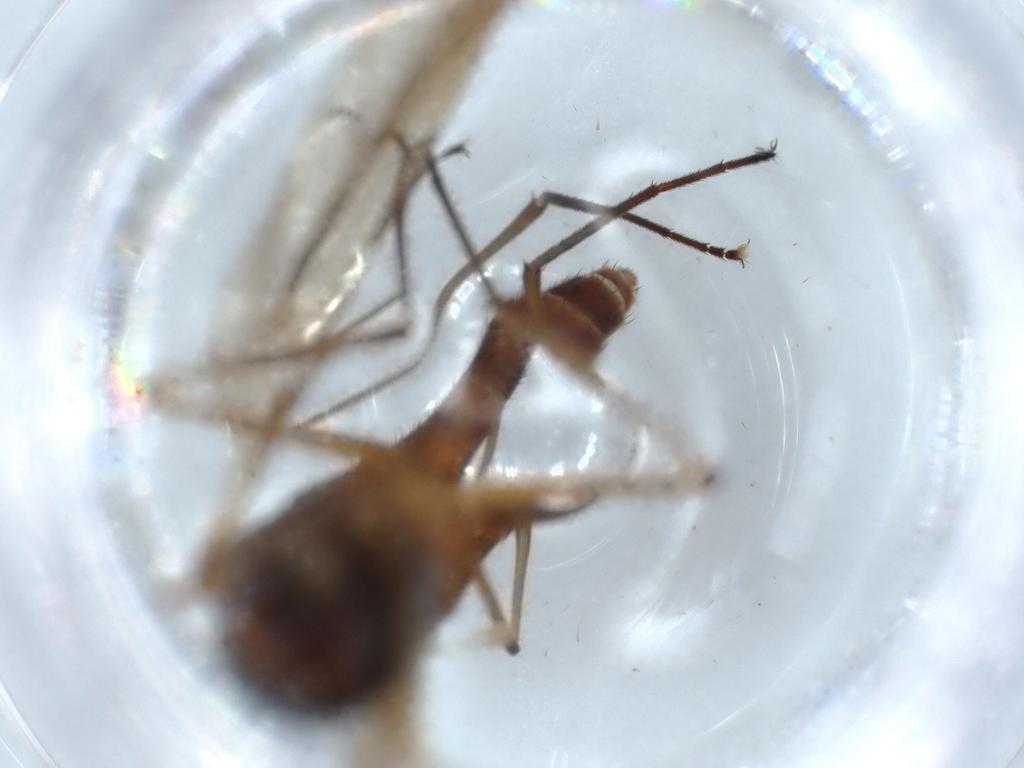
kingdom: Animalia
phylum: Arthropoda
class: Insecta
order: Diptera
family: Brachystomatidae
